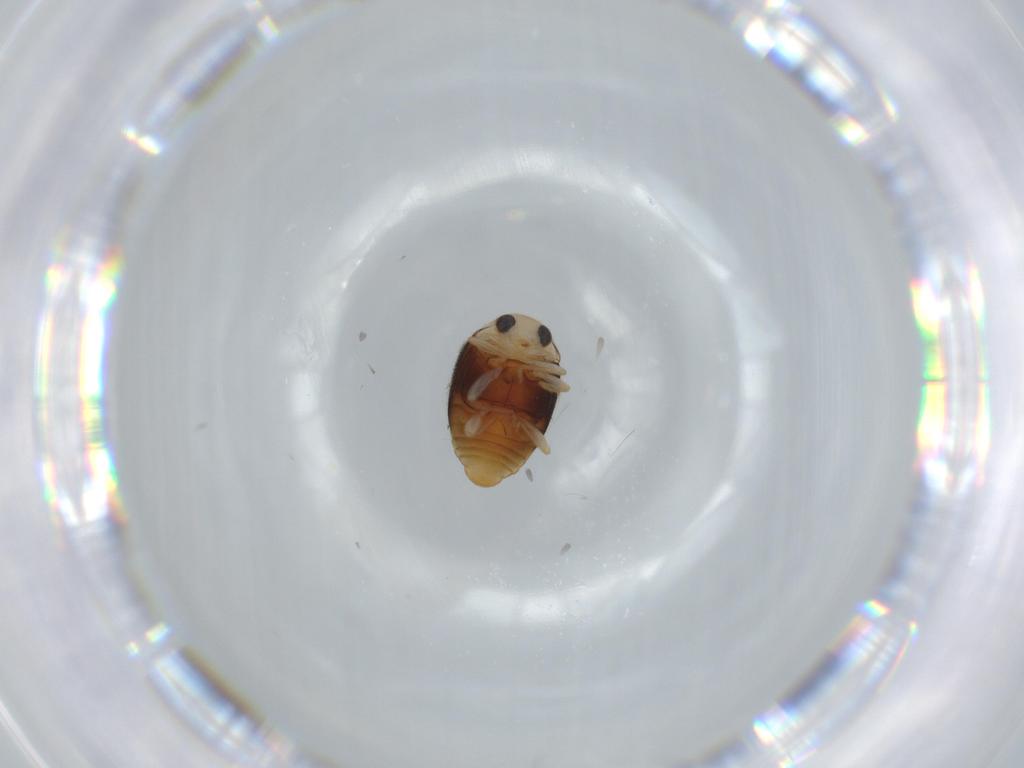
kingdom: Animalia
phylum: Arthropoda
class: Insecta
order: Coleoptera
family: Coccinellidae
